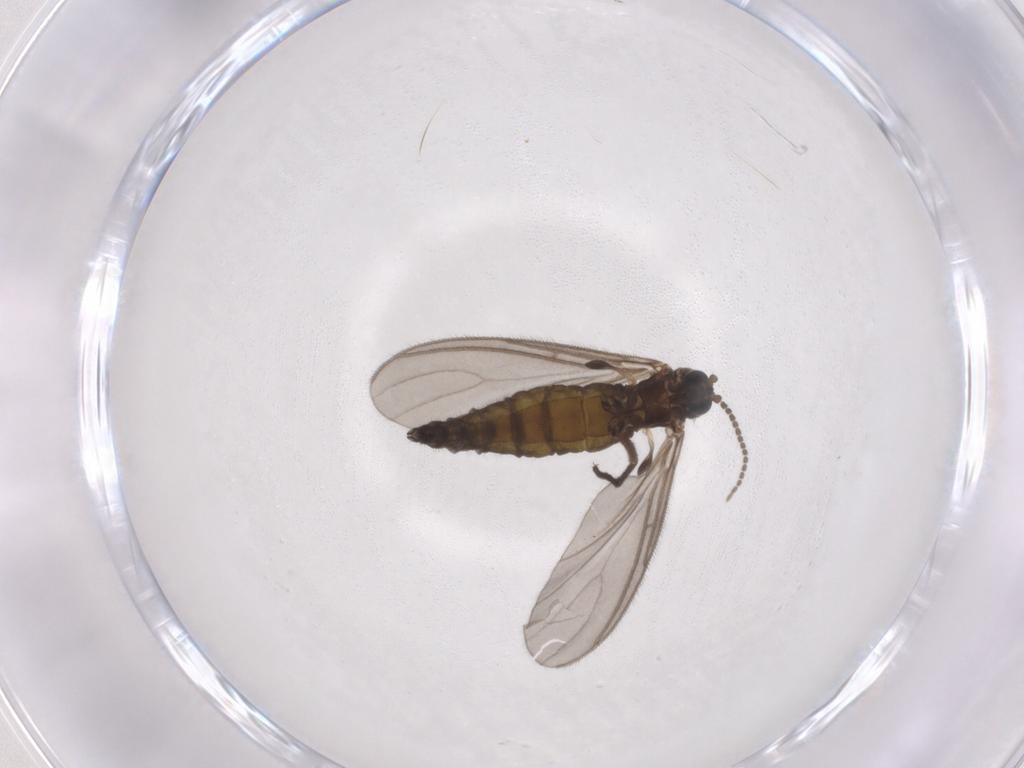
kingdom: Animalia
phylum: Arthropoda
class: Insecta
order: Diptera
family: Sciaridae
